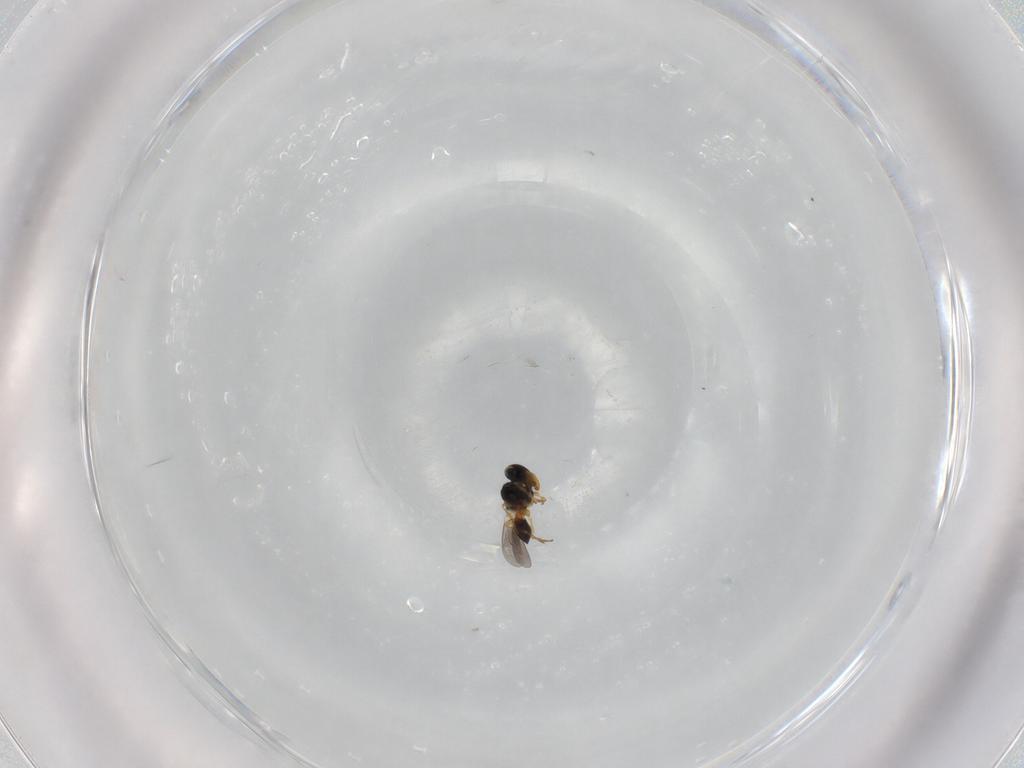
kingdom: Animalia
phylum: Arthropoda
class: Insecta
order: Hymenoptera
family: Platygastridae
